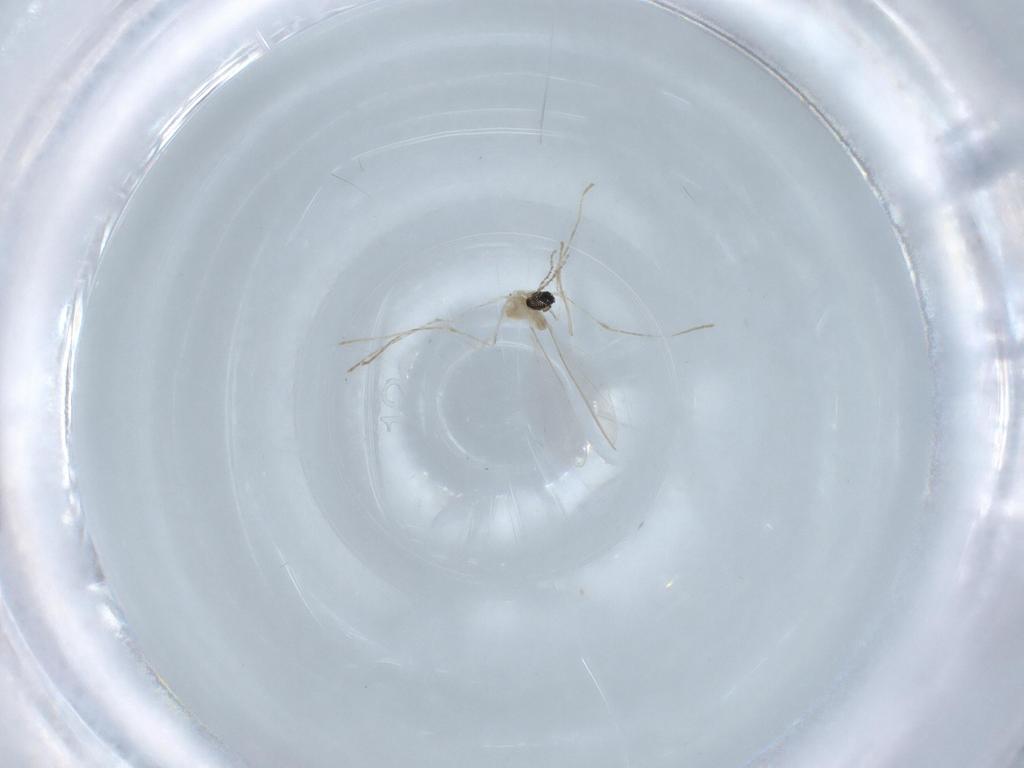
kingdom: Animalia
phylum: Arthropoda
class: Insecta
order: Diptera
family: Cecidomyiidae
